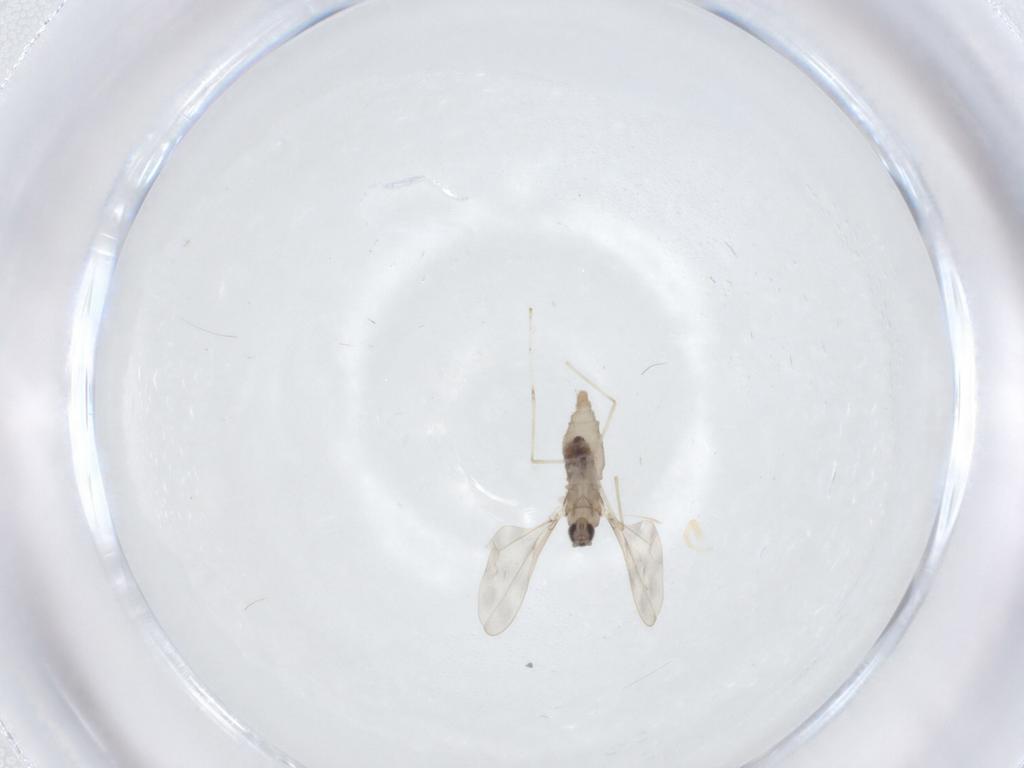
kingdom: Animalia
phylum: Arthropoda
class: Insecta
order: Diptera
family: Cecidomyiidae
